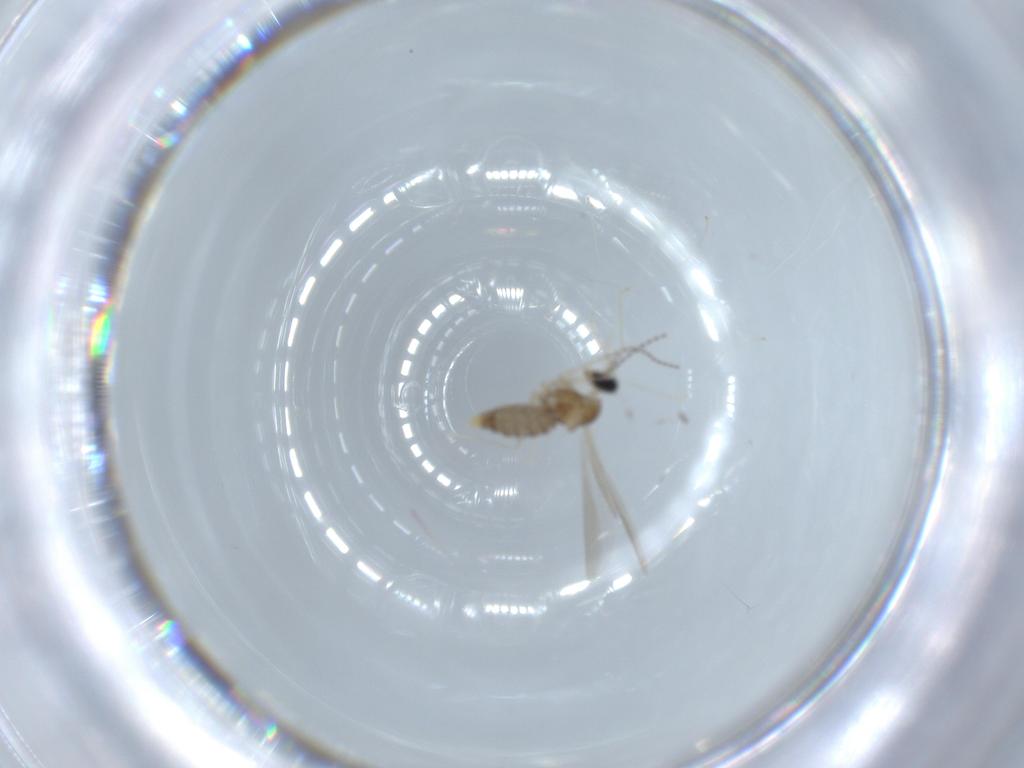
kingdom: Animalia
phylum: Arthropoda
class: Insecta
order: Diptera
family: Cecidomyiidae
